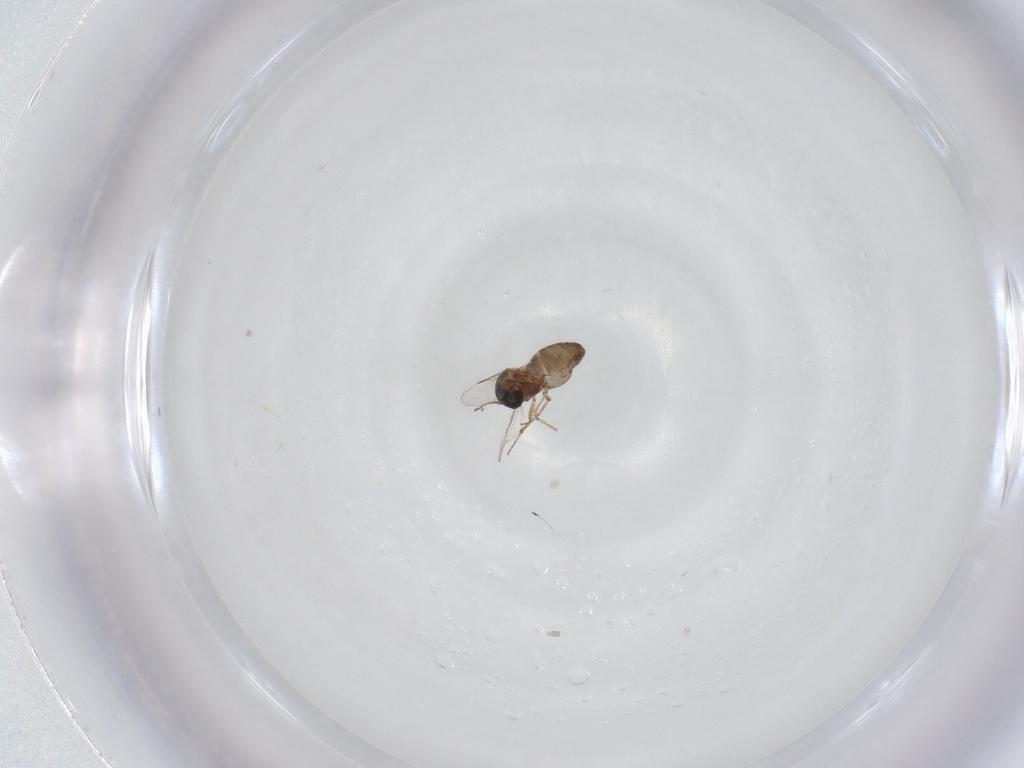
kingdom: Animalia
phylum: Arthropoda
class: Insecta
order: Diptera
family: Ceratopogonidae
